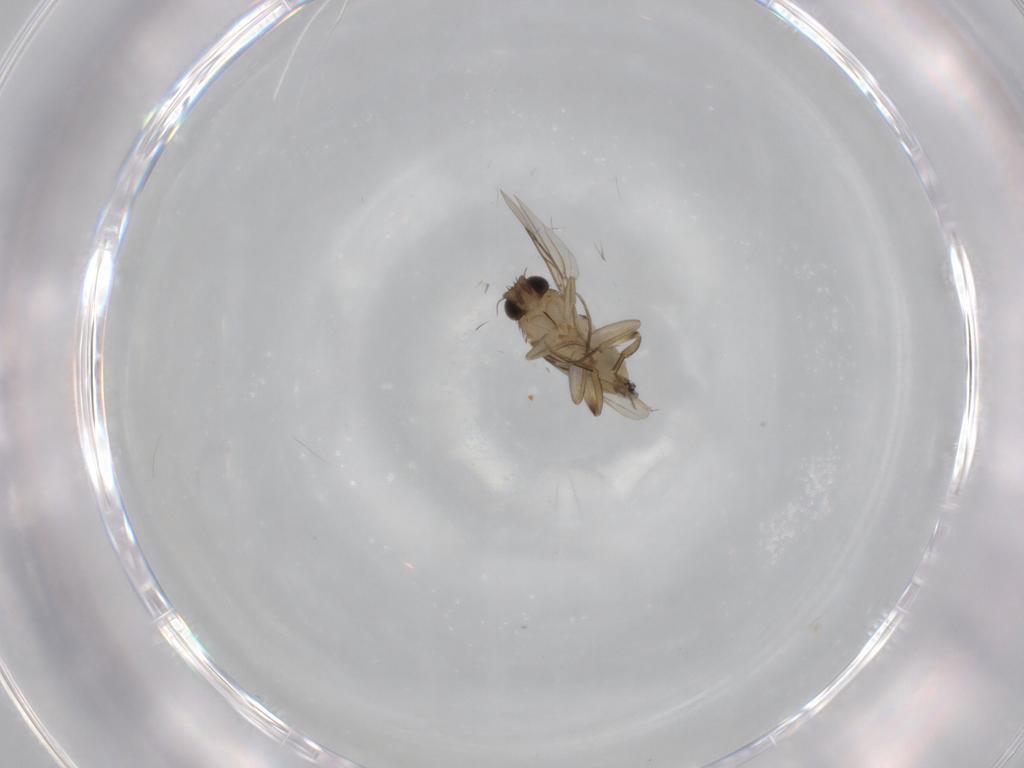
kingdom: Animalia
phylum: Arthropoda
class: Insecta
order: Diptera
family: Phoridae
